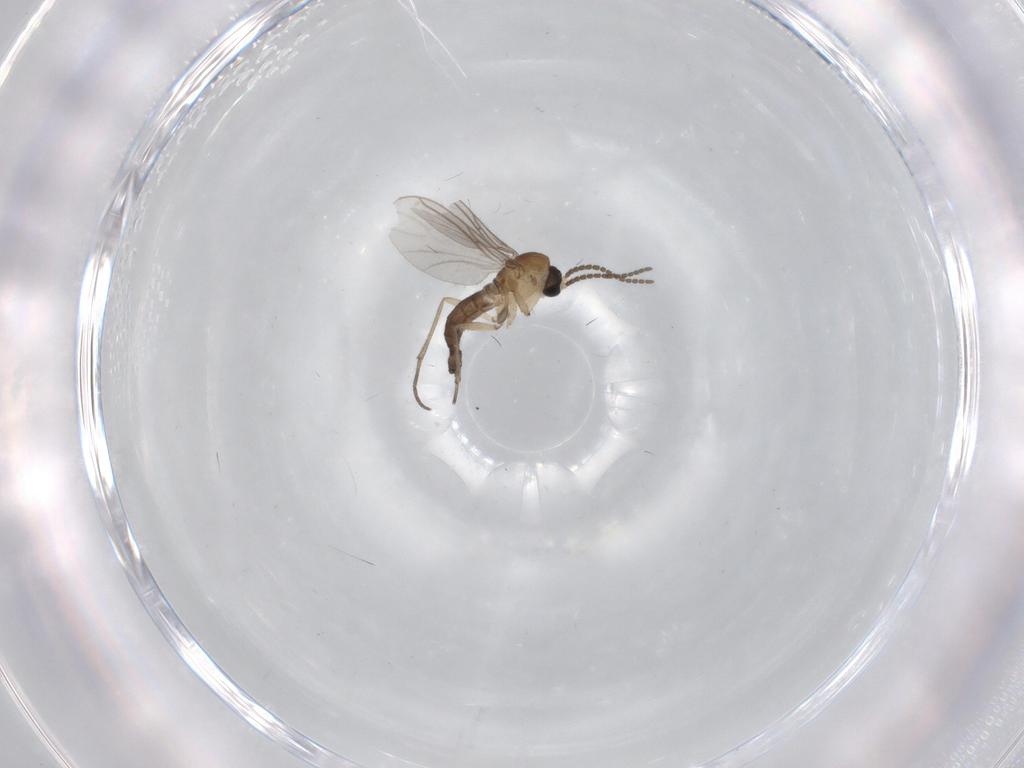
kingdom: Animalia
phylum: Arthropoda
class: Insecta
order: Diptera
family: Sciaridae
